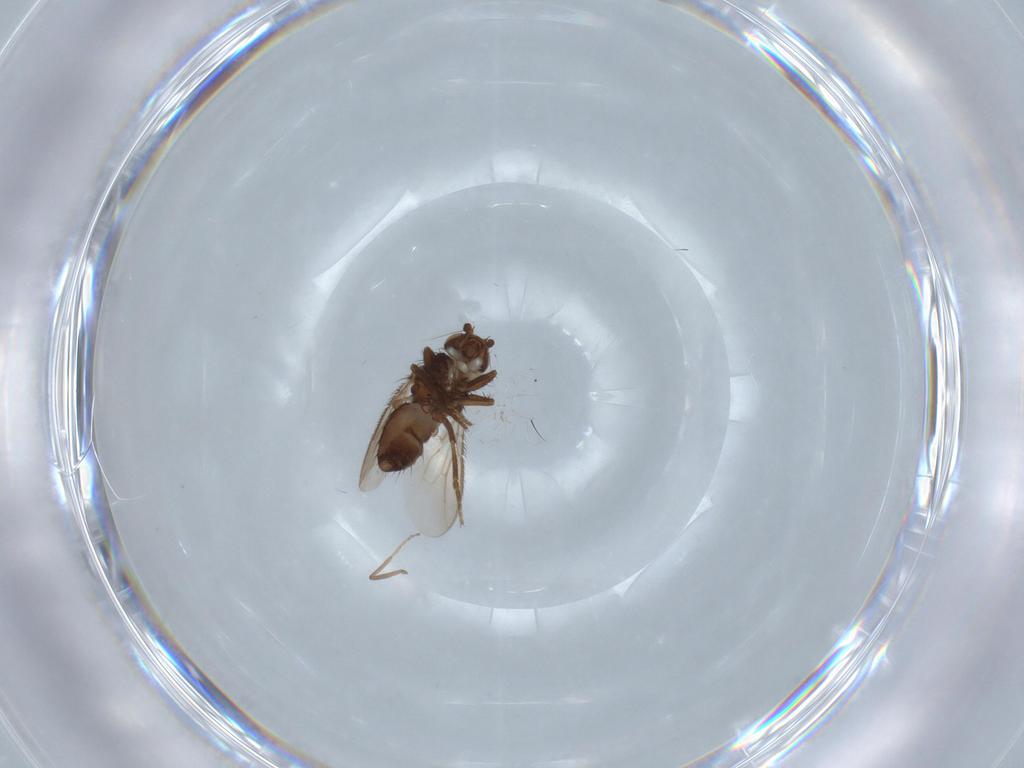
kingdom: Animalia
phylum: Arthropoda
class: Insecta
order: Diptera
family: Sphaeroceridae
